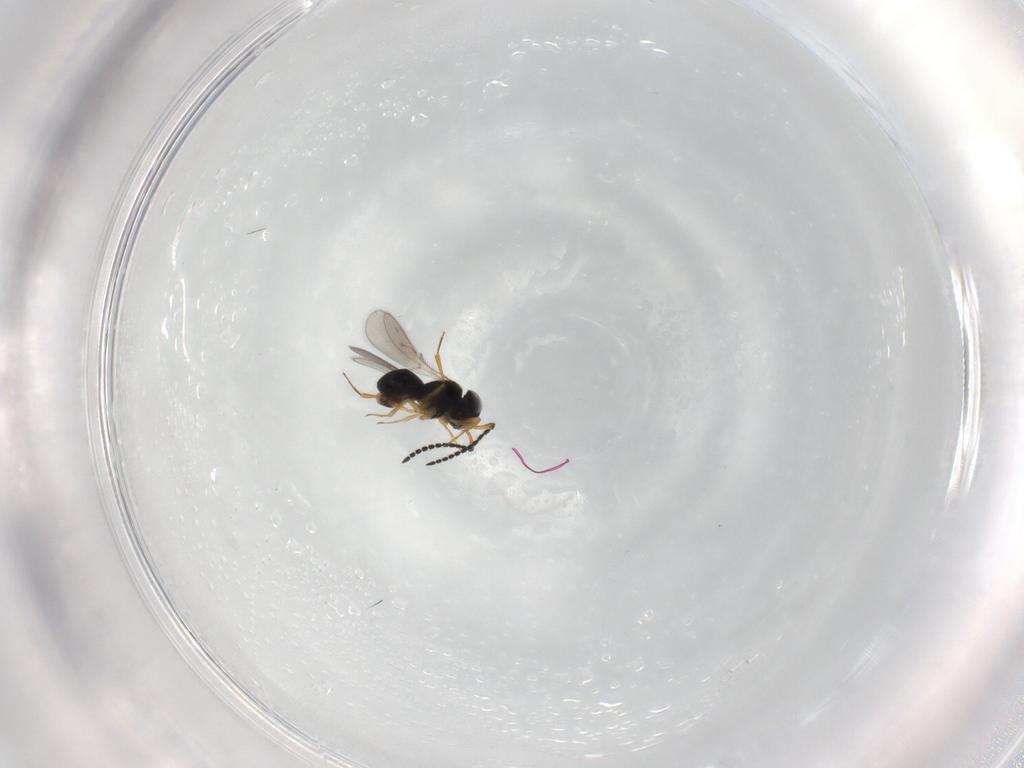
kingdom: Animalia
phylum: Arthropoda
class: Insecta
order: Hymenoptera
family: Scelionidae
